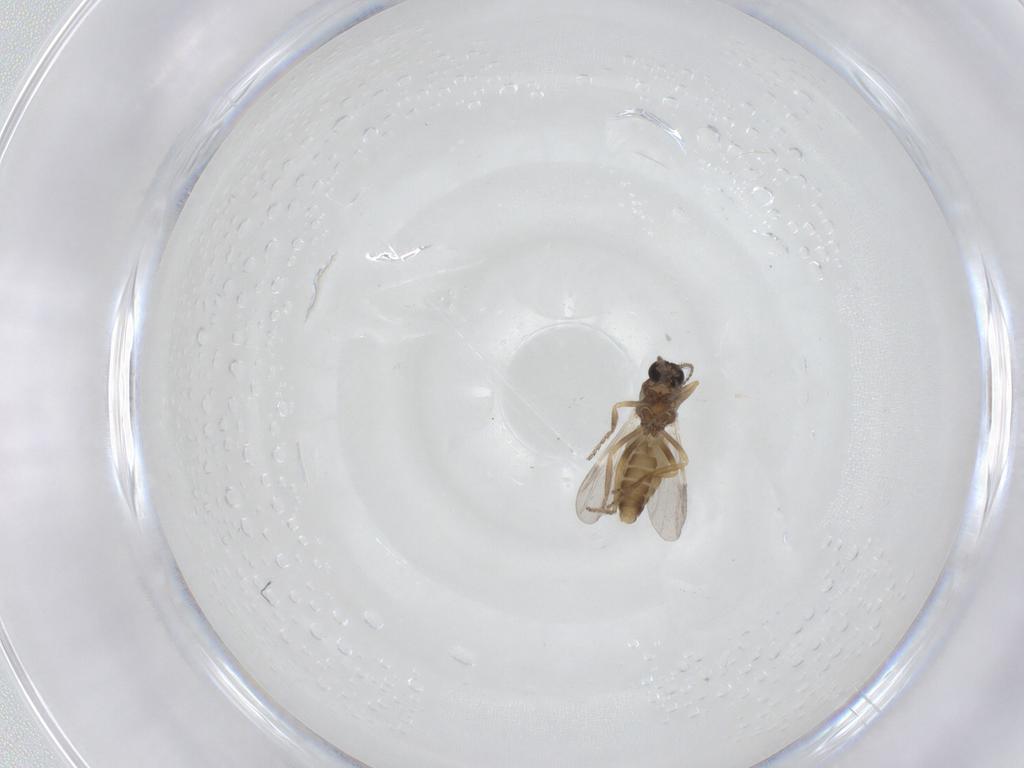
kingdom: Animalia
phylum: Arthropoda
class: Insecta
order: Diptera
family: Ceratopogonidae
